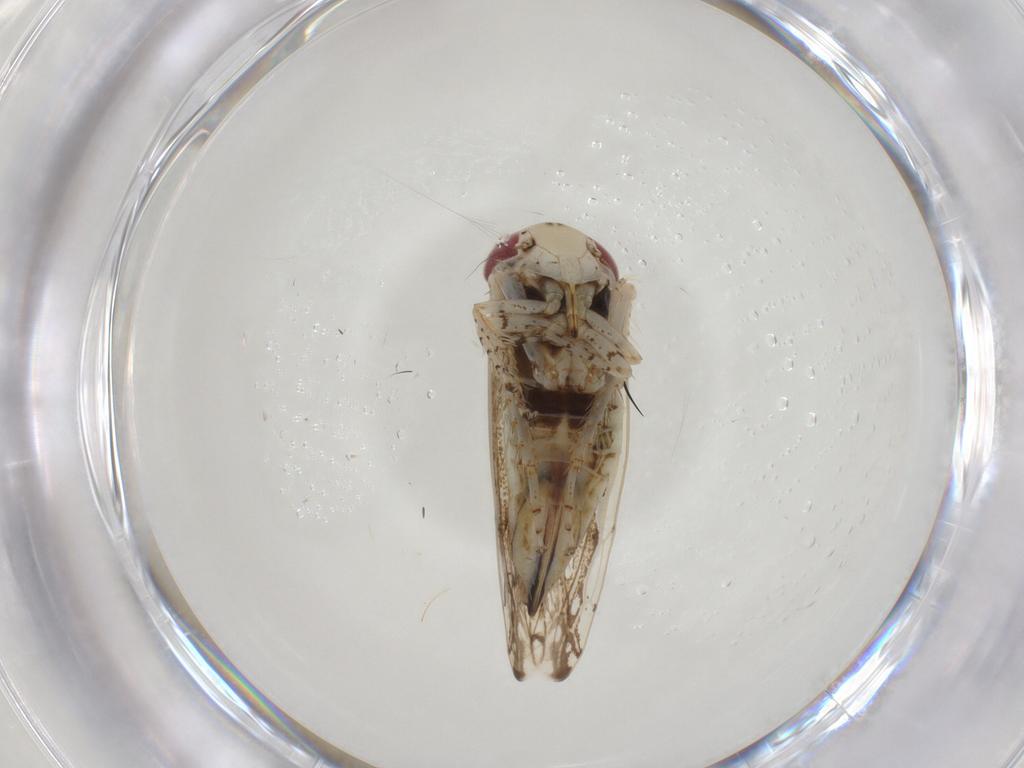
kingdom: Animalia
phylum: Arthropoda
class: Insecta
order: Hemiptera
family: Cicadellidae
